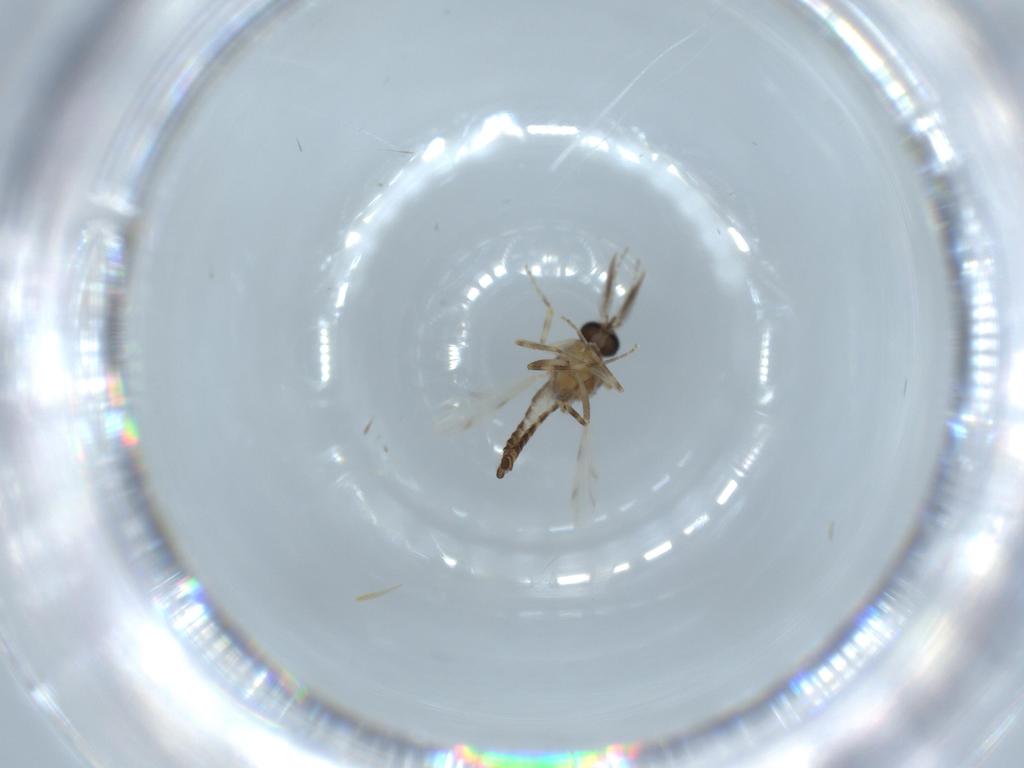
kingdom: Animalia
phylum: Arthropoda
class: Insecta
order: Diptera
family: Ceratopogonidae
